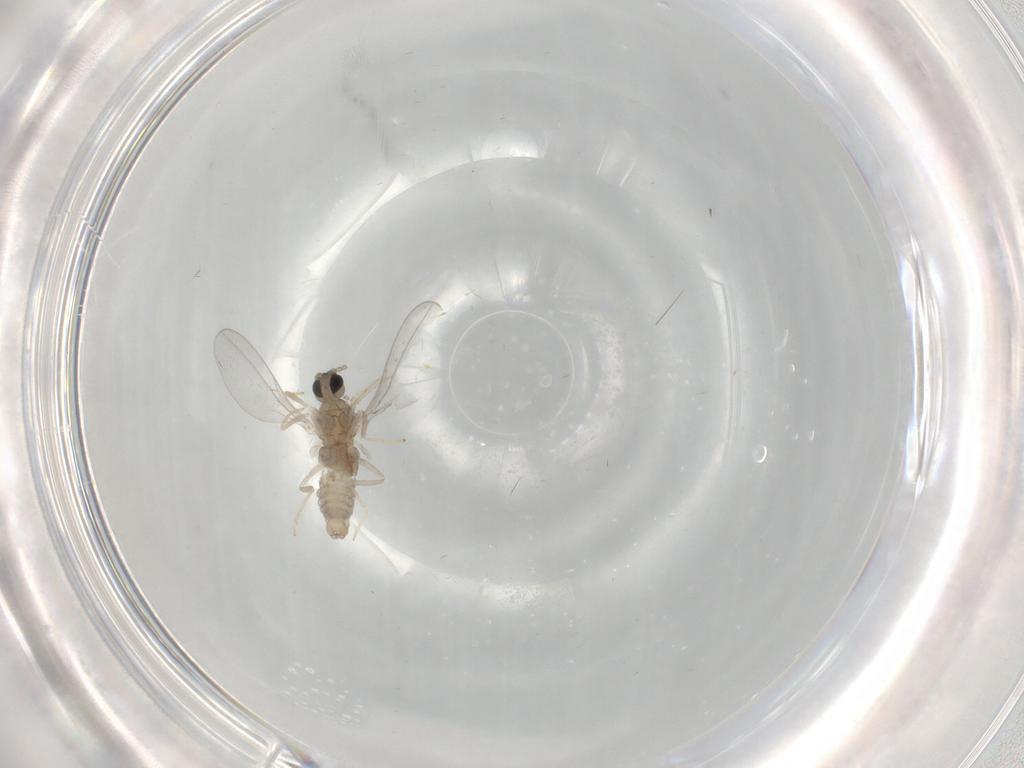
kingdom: Animalia
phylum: Arthropoda
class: Insecta
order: Diptera
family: Cecidomyiidae
